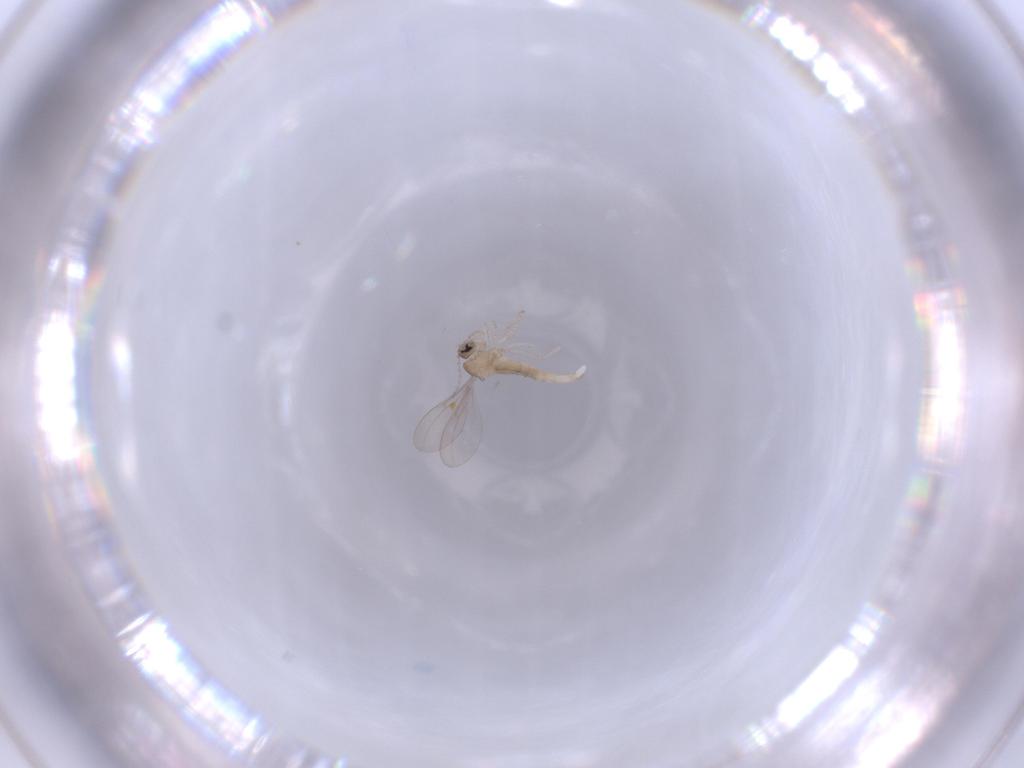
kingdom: Animalia
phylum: Arthropoda
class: Insecta
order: Diptera
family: Cecidomyiidae
